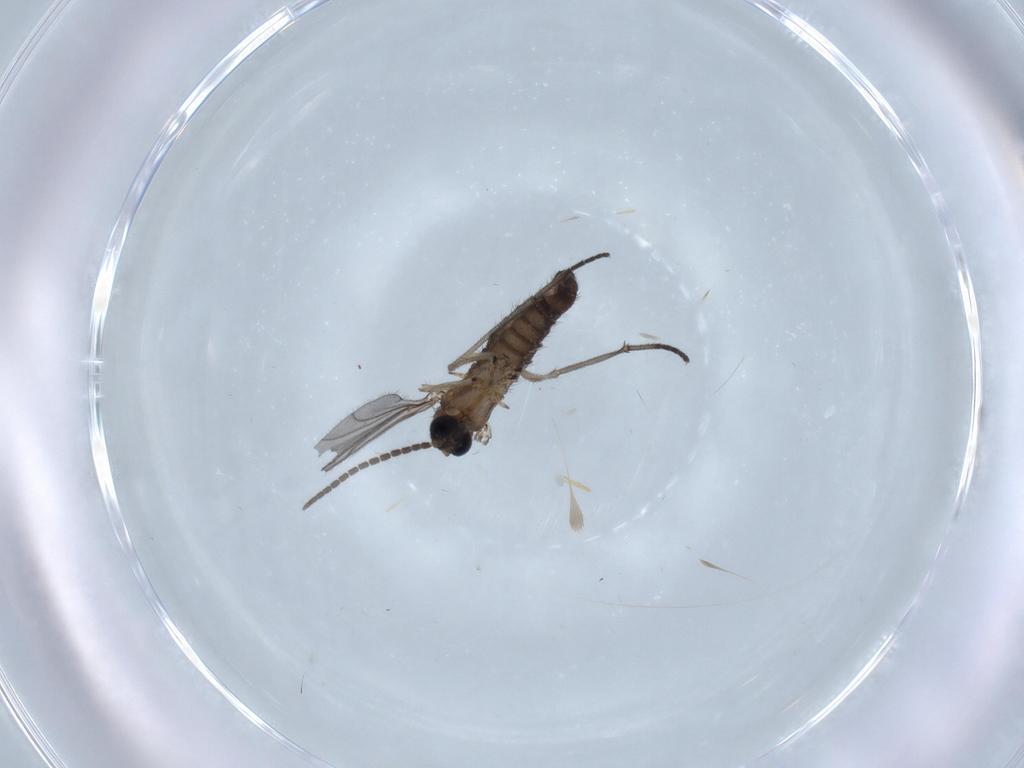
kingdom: Animalia
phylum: Arthropoda
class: Insecta
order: Diptera
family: Sciaridae
